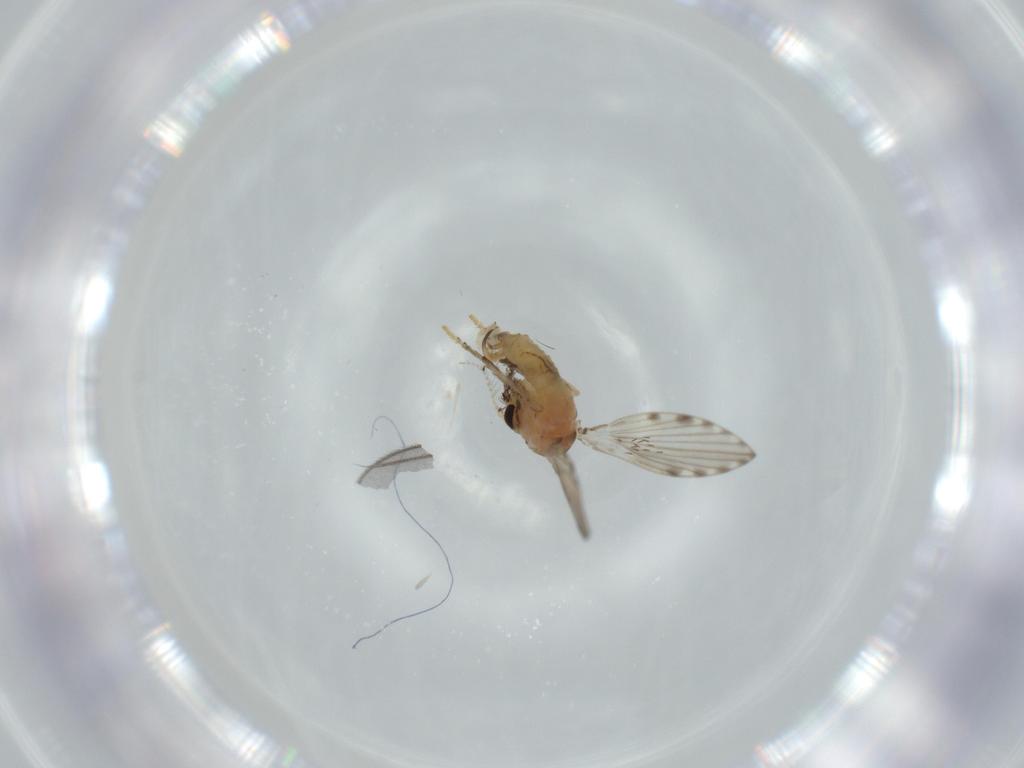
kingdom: Animalia
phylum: Arthropoda
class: Insecta
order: Diptera
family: Psychodidae
